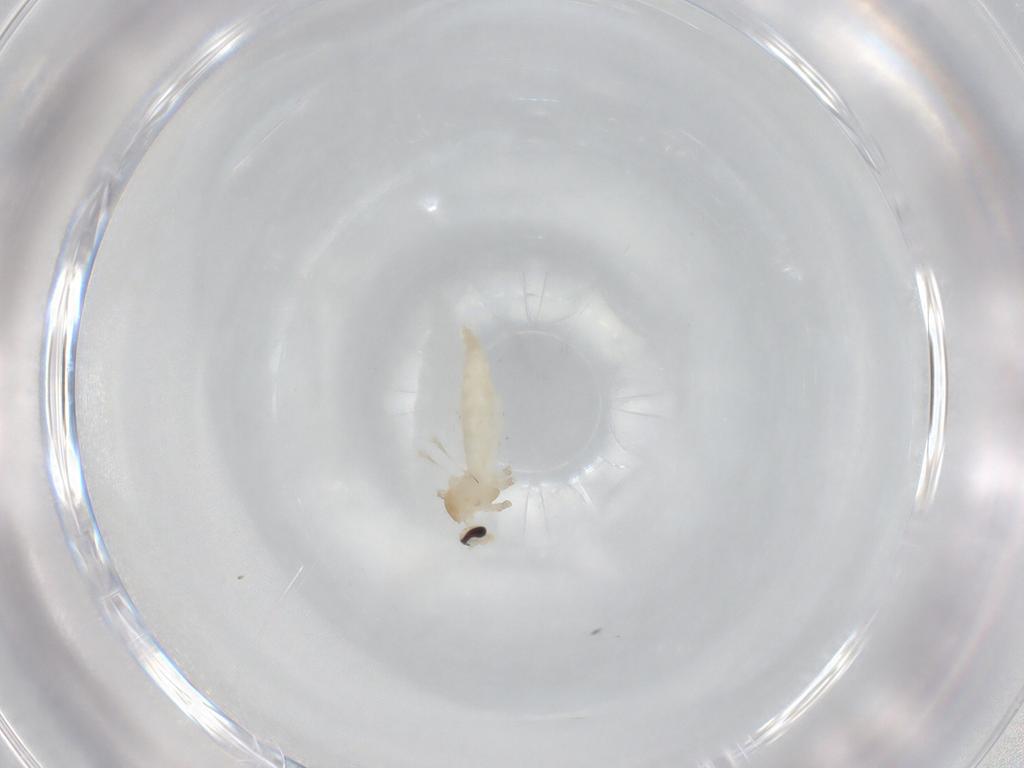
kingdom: Animalia
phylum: Arthropoda
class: Insecta
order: Diptera
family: Cecidomyiidae
